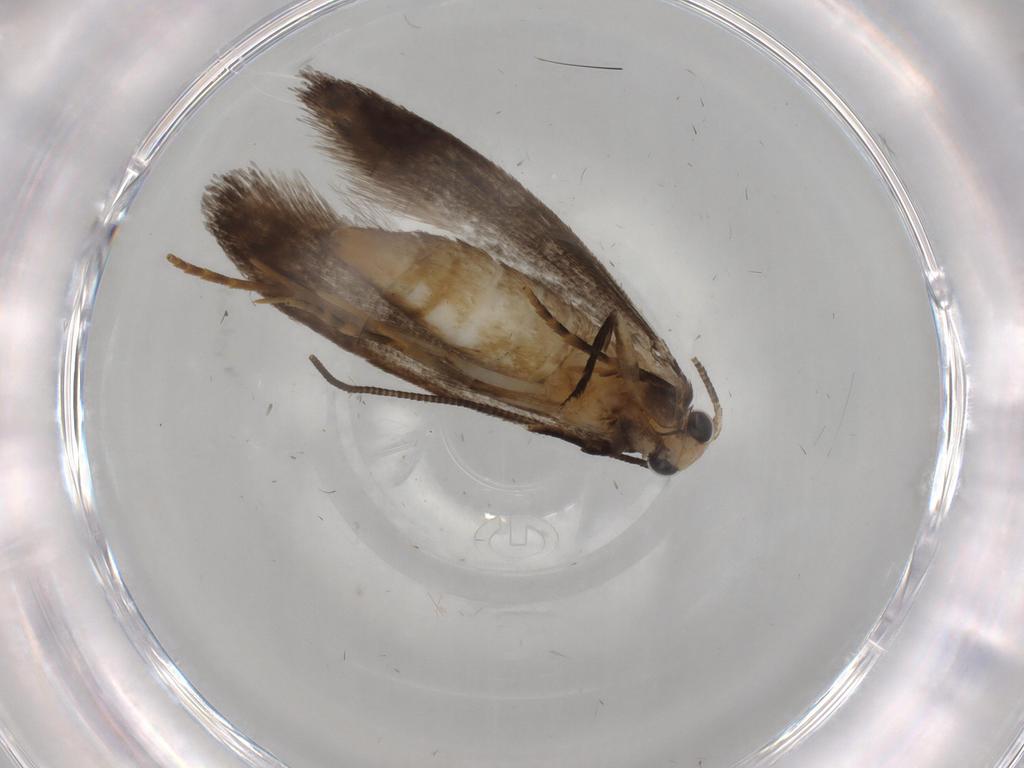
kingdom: Animalia
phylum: Arthropoda
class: Insecta
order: Lepidoptera
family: Tineidae
